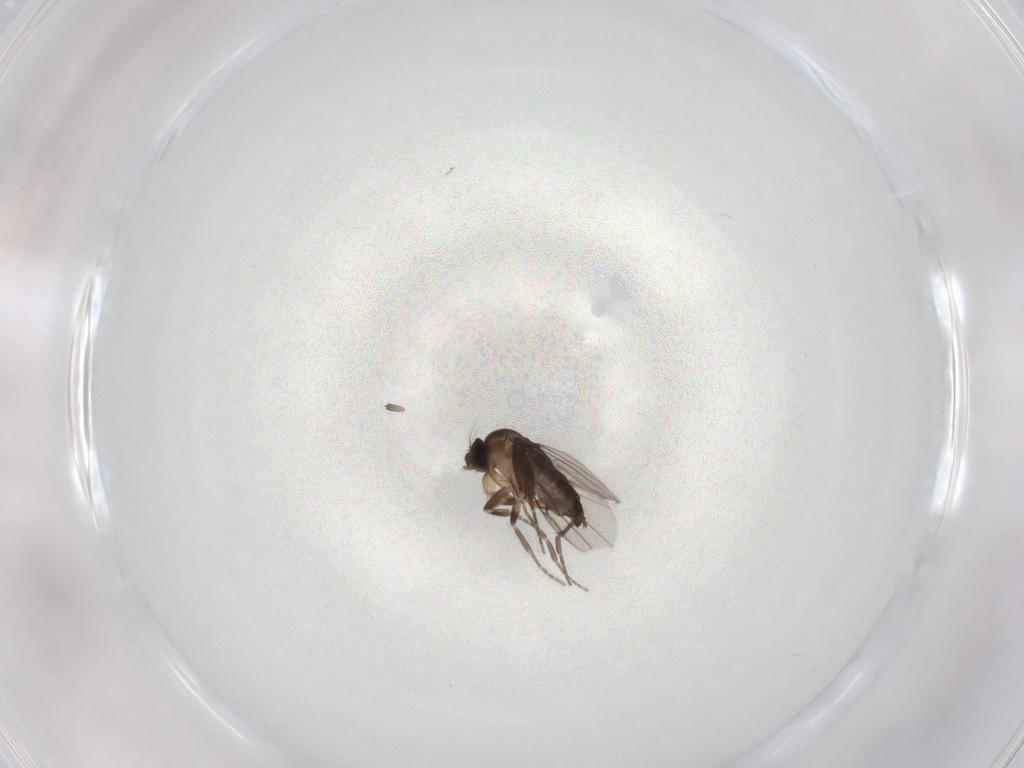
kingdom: Animalia
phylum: Arthropoda
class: Insecta
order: Diptera
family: Phoridae
